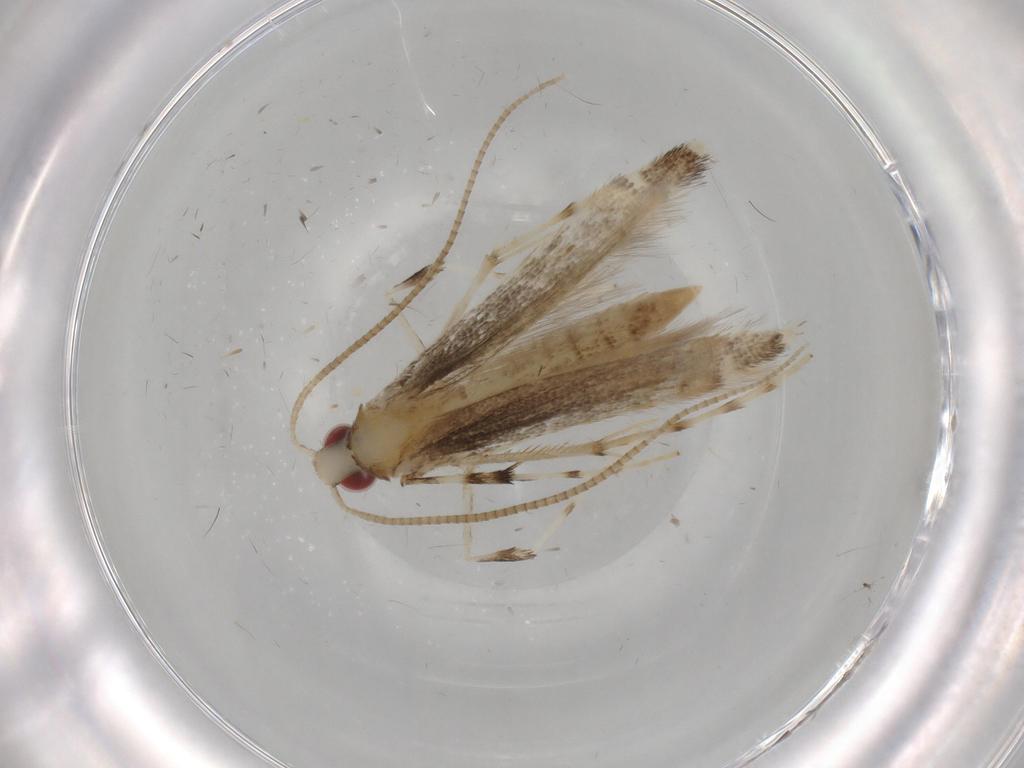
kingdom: Animalia
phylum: Arthropoda
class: Insecta
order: Lepidoptera
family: Gracillariidae
